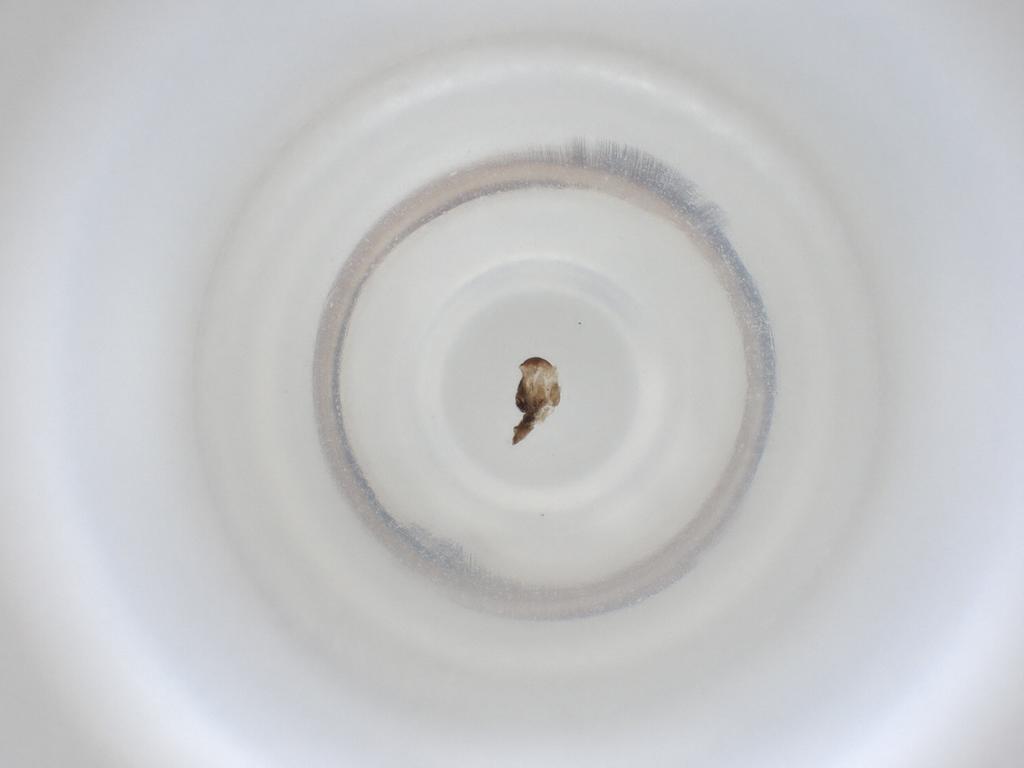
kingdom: Animalia
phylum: Arthropoda
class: Insecta
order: Diptera
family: Cecidomyiidae
